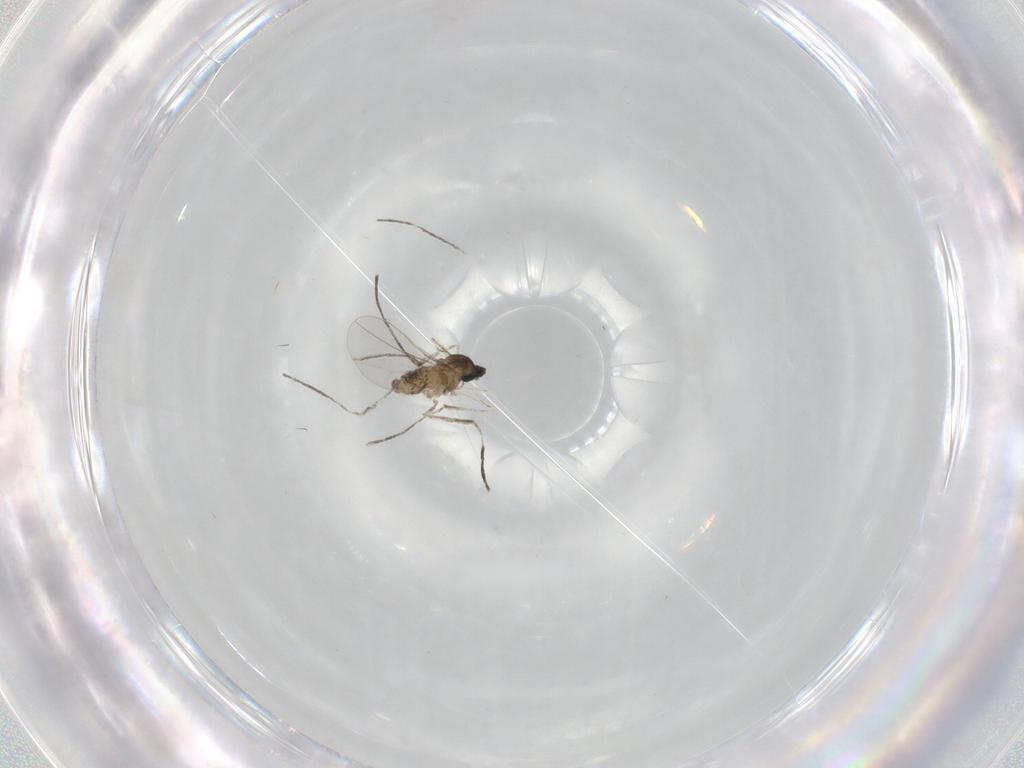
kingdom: Animalia
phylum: Arthropoda
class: Insecta
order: Diptera
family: Cecidomyiidae
